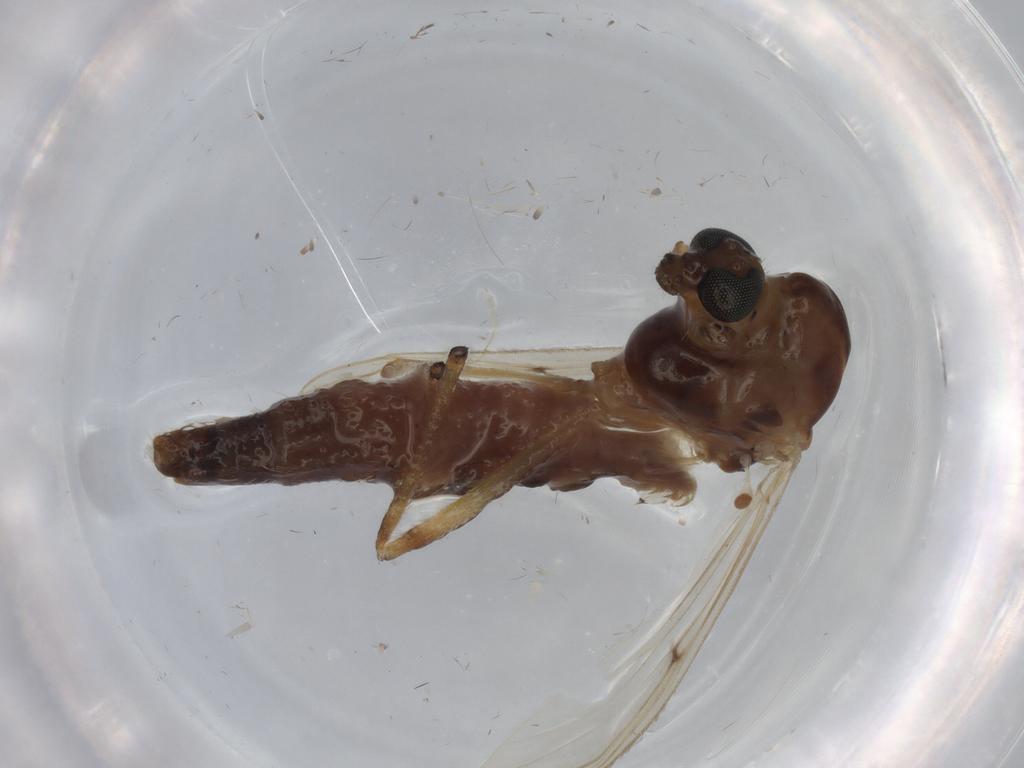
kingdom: Animalia
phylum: Arthropoda
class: Insecta
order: Diptera
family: Chironomidae
